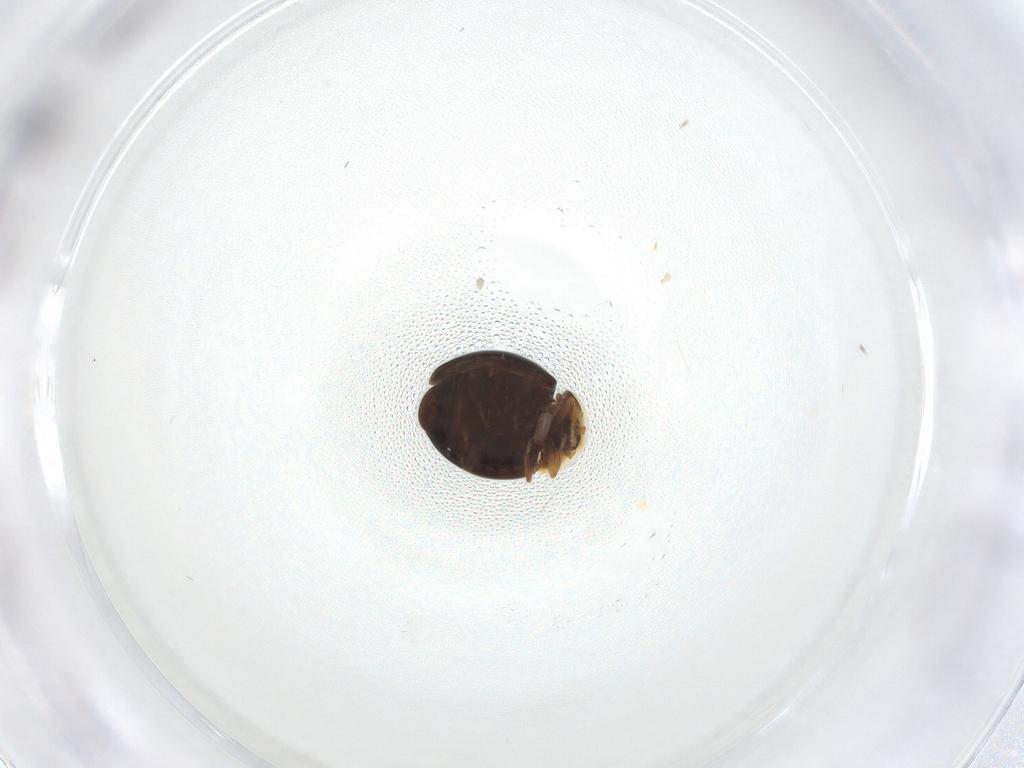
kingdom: Animalia
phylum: Arthropoda
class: Insecta
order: Coleoptera
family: Corylophidae
